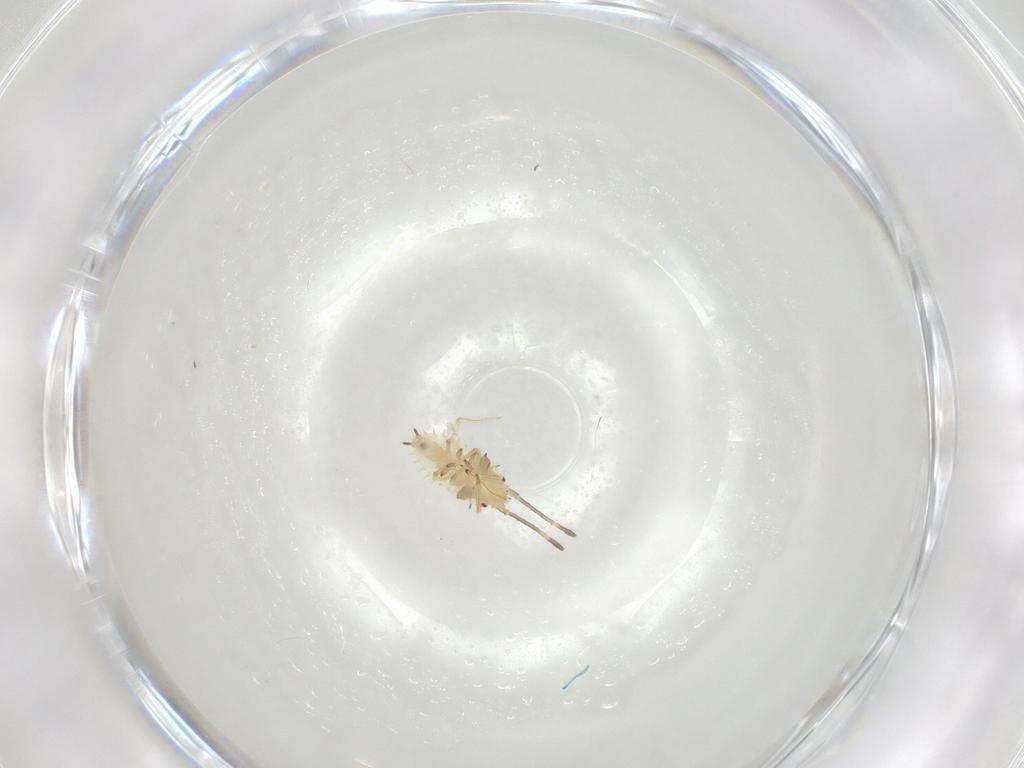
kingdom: Animalia
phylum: Arthropoda
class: Insecta
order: Hemiptera
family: Tingidae
